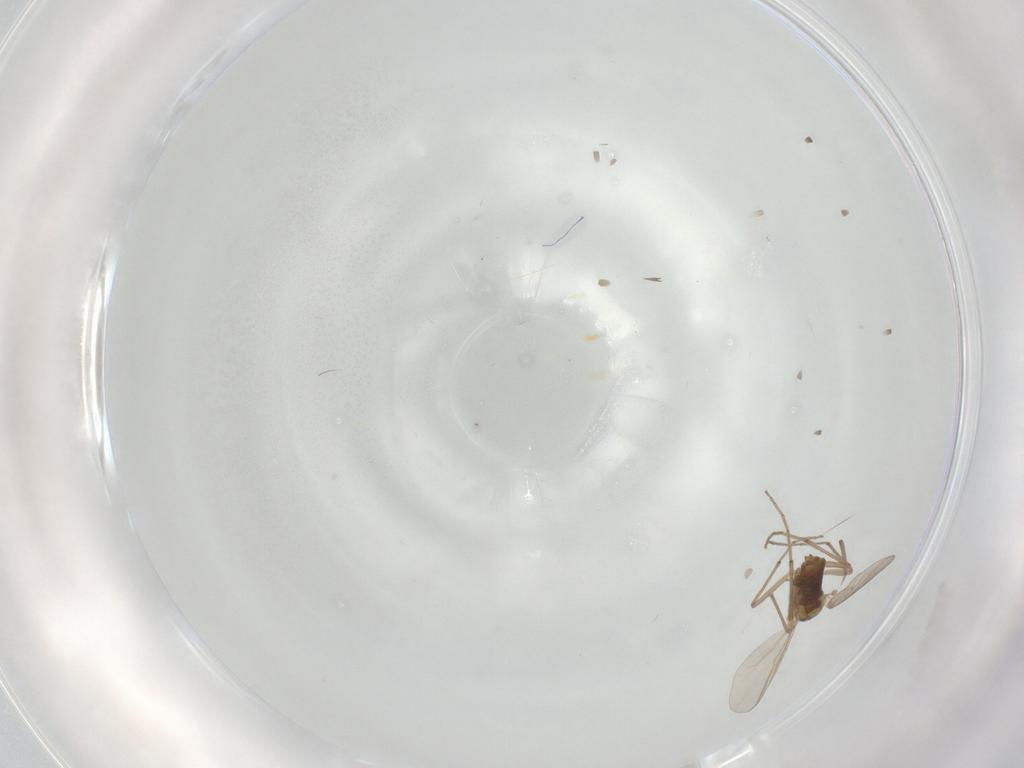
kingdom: Animalia
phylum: Arthropoda
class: Insecta
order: Diptera
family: Chironomidae
